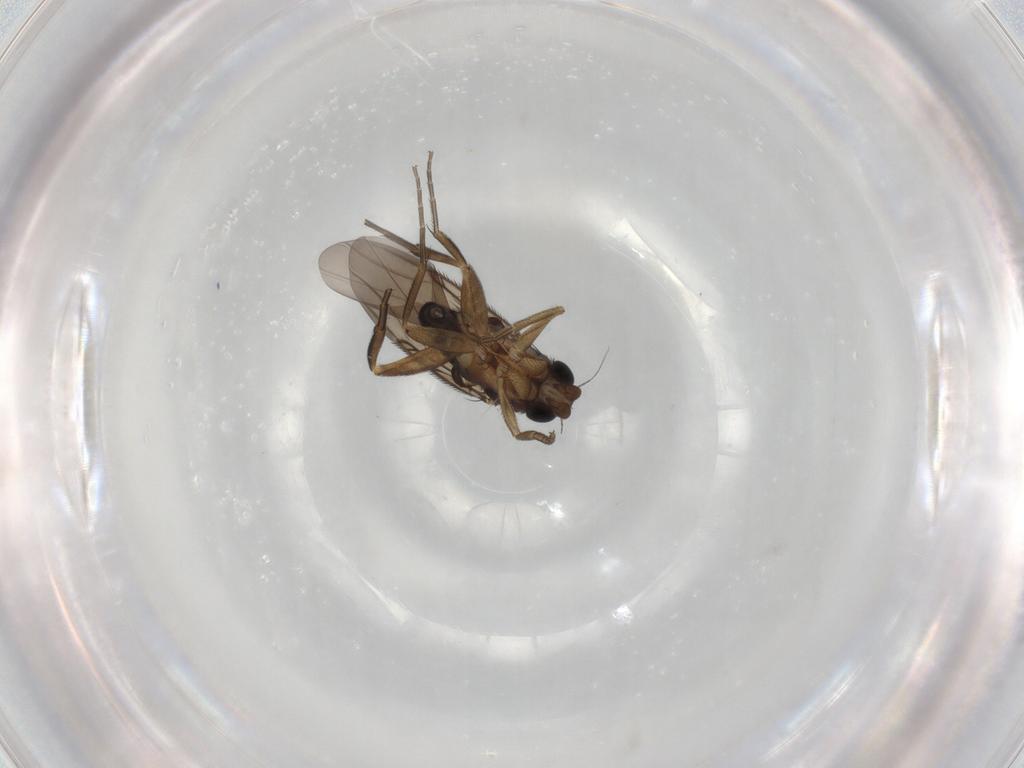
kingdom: Animalia
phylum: Arthropoda
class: Insecta
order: Diptera
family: Phoridae
